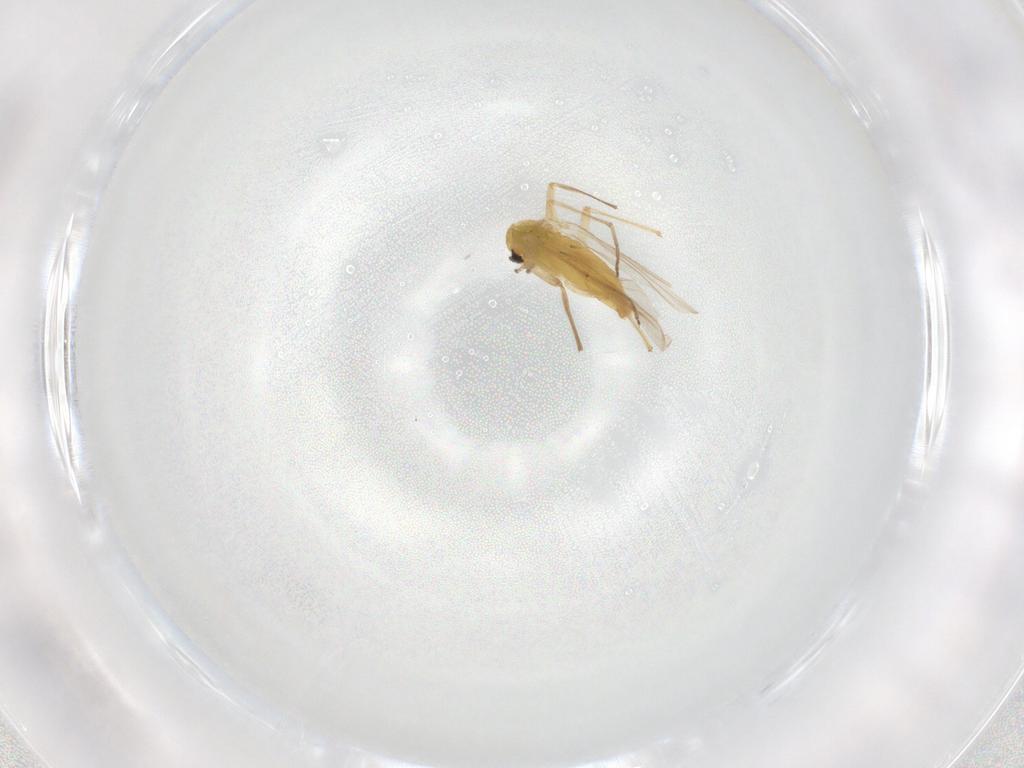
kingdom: Animalia
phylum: Arthropoda
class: Insecta
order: Diptera
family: Chironomidae
